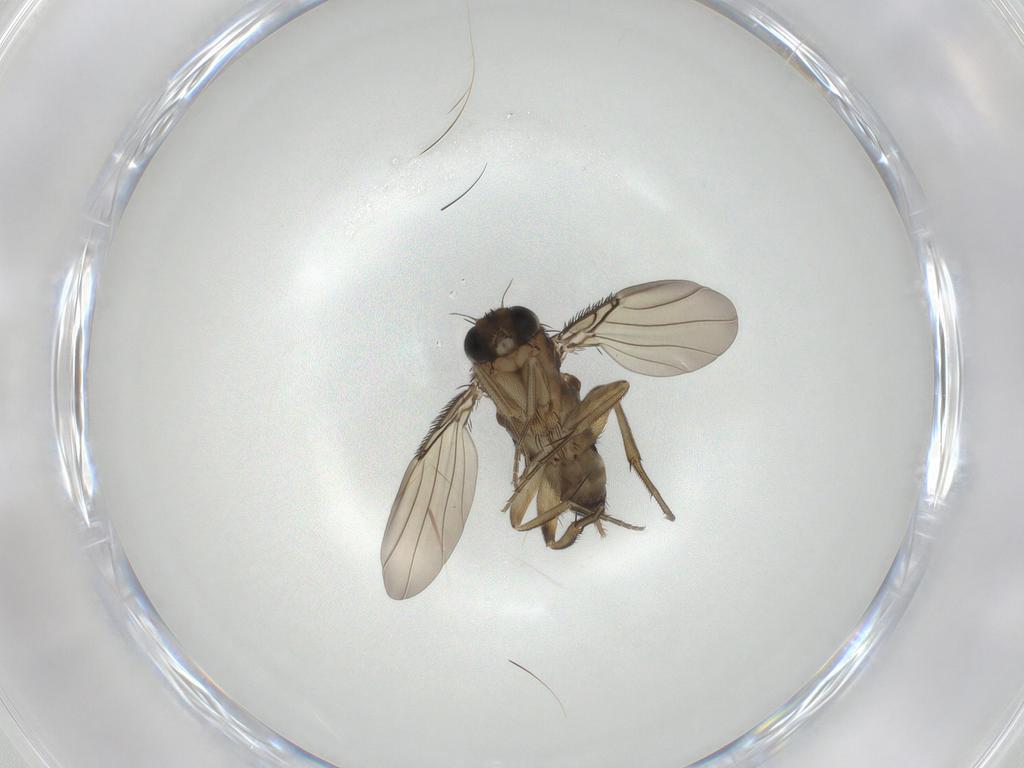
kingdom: Animalia
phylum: Arthropoda
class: Insecta
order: Diptera
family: Phoridae
